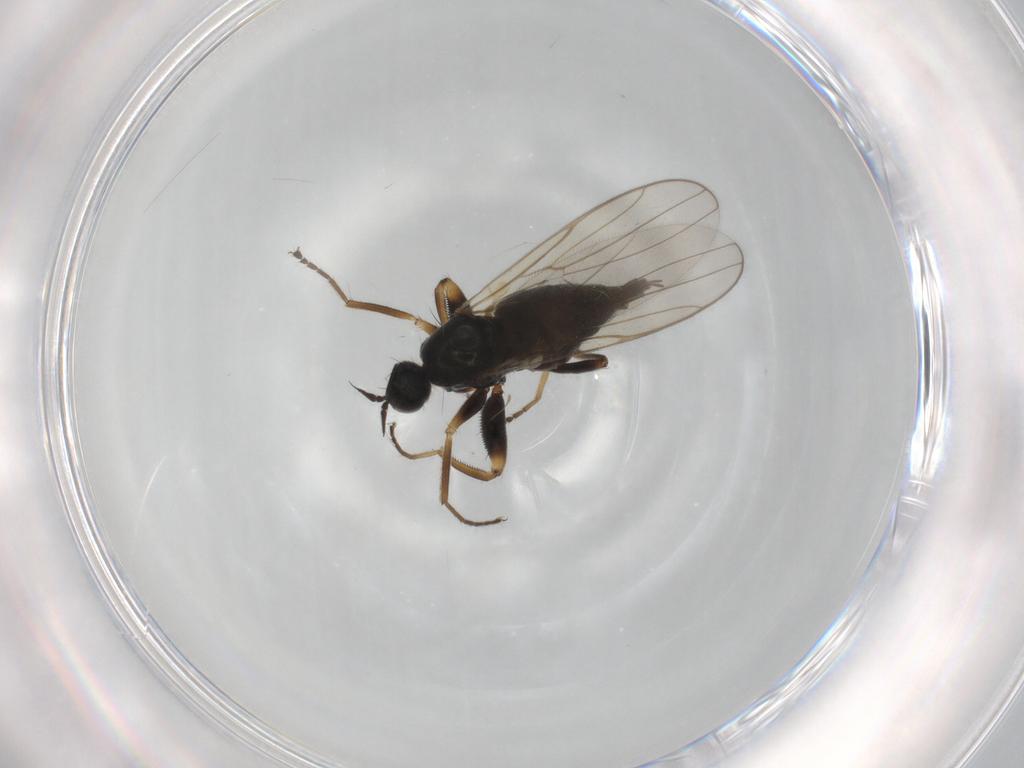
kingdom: Animalia
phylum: Arthropoda
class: Insecta
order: Diptera
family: Chironomidae
